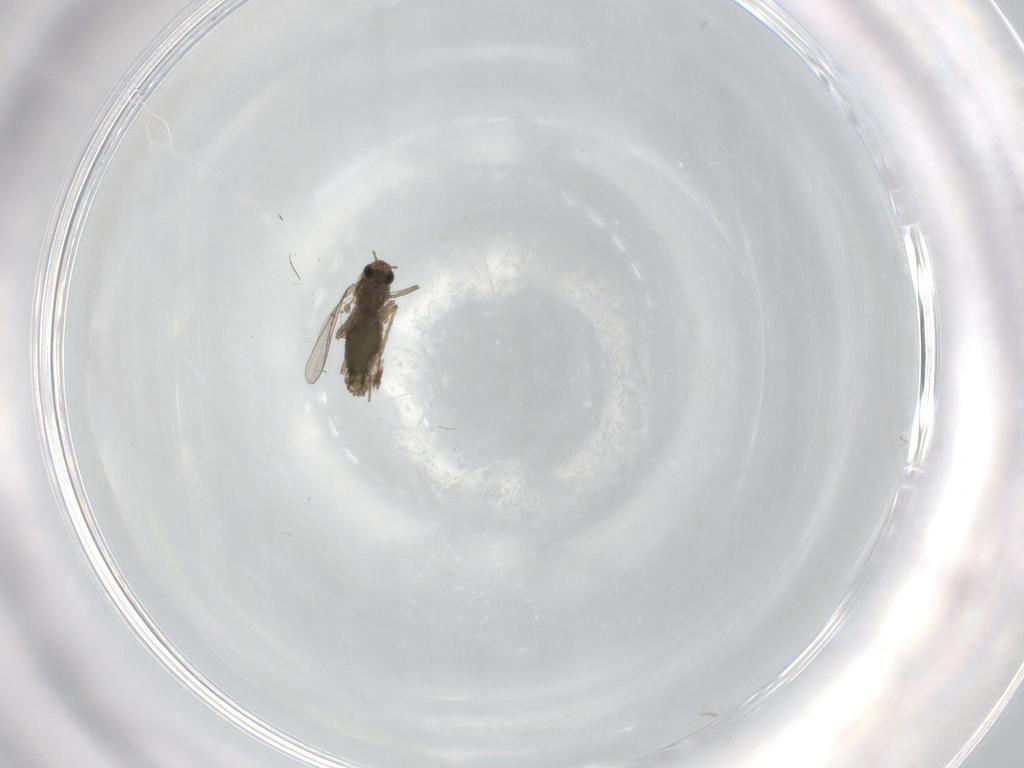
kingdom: Animalia
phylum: Arthropoda
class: Insecta
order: Diptera
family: Chironomidae
